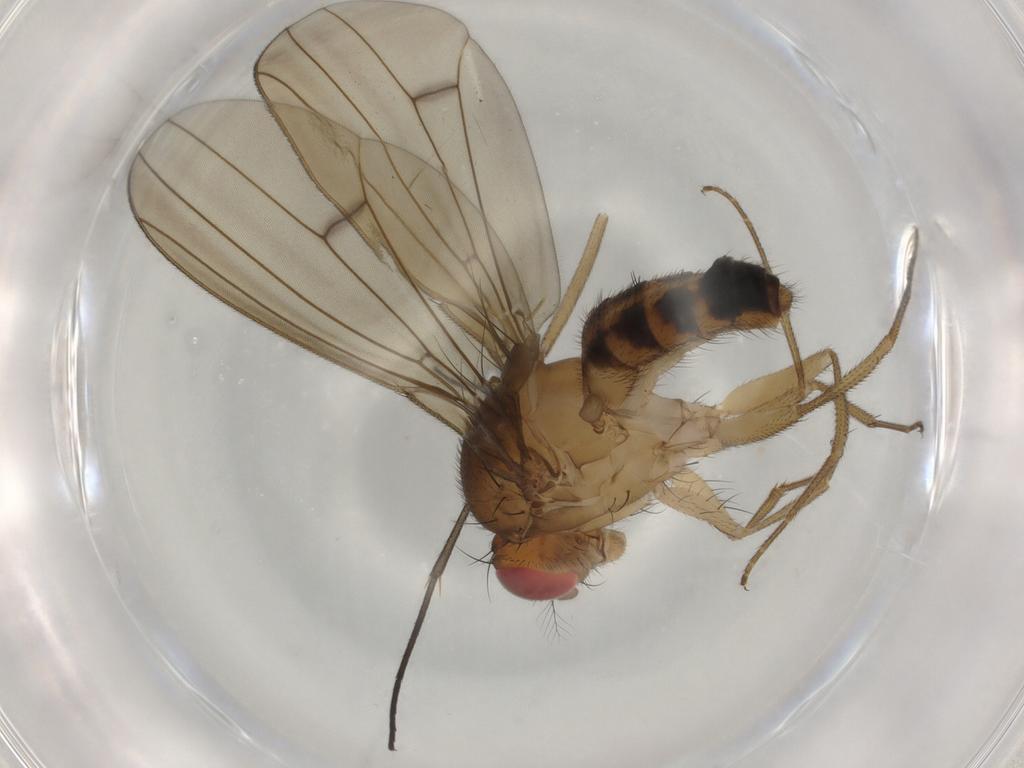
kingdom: Animalia
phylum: Arthropoda
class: Insecta
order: Diptera
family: Drosophilidae
